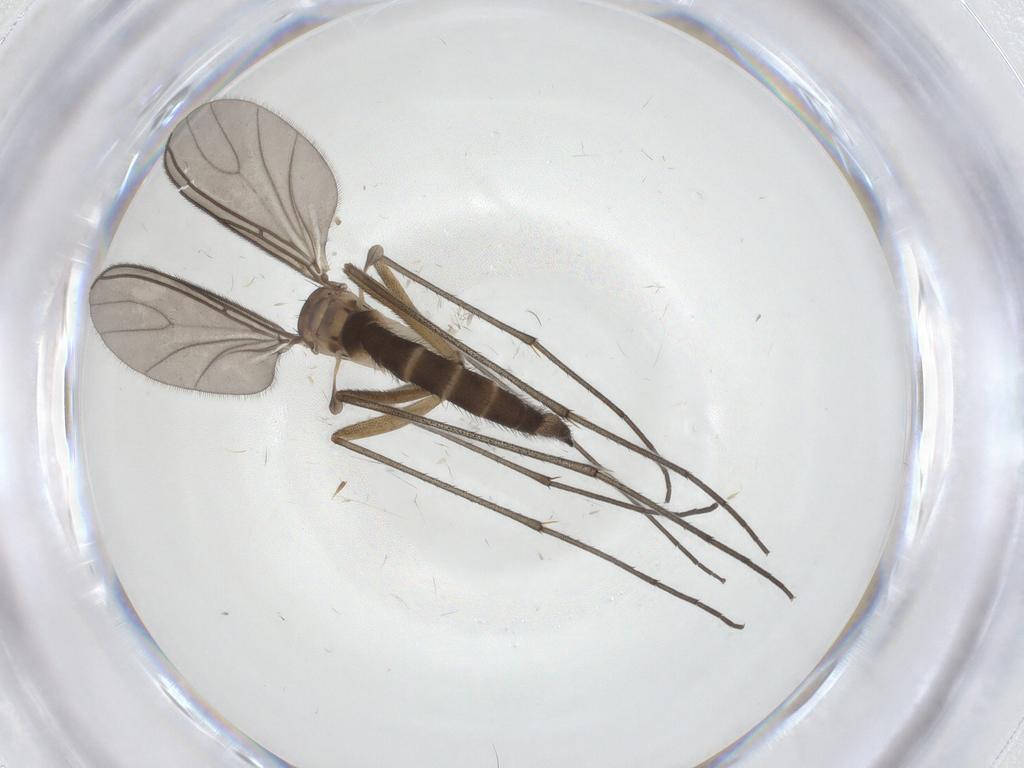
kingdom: Animalia
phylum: Arthropoda
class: Insecta
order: Diptera
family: Sciaridae
